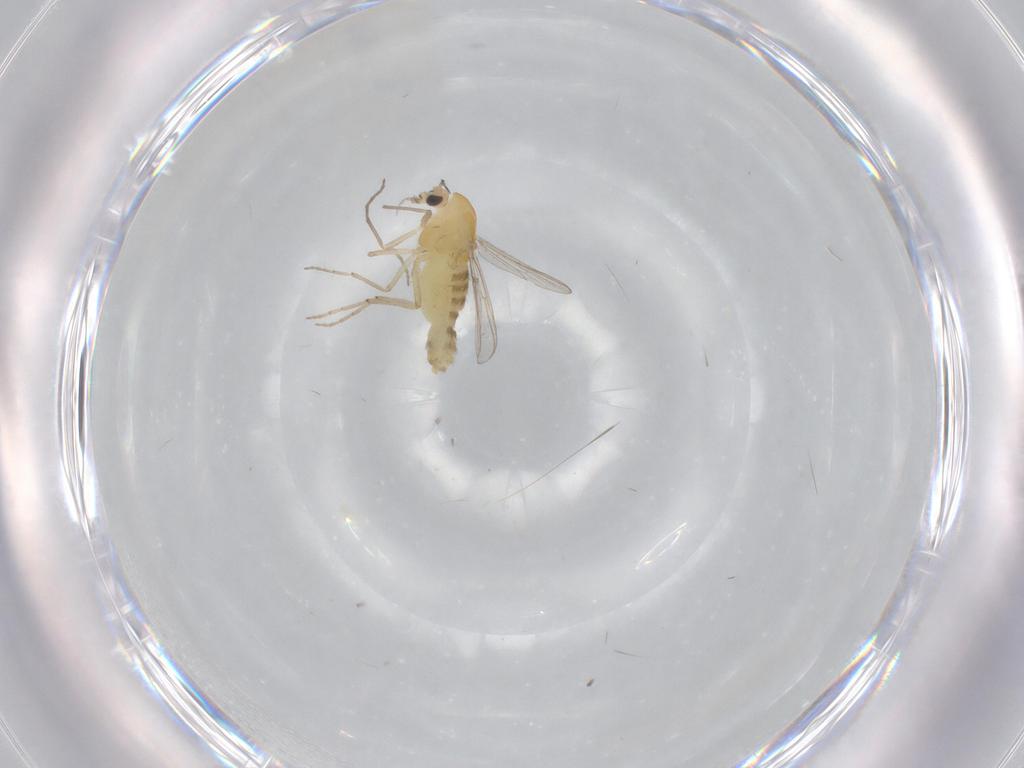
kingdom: Animalia
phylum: Arthropoda
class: Insecta
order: Diptera
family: Chironomidae
